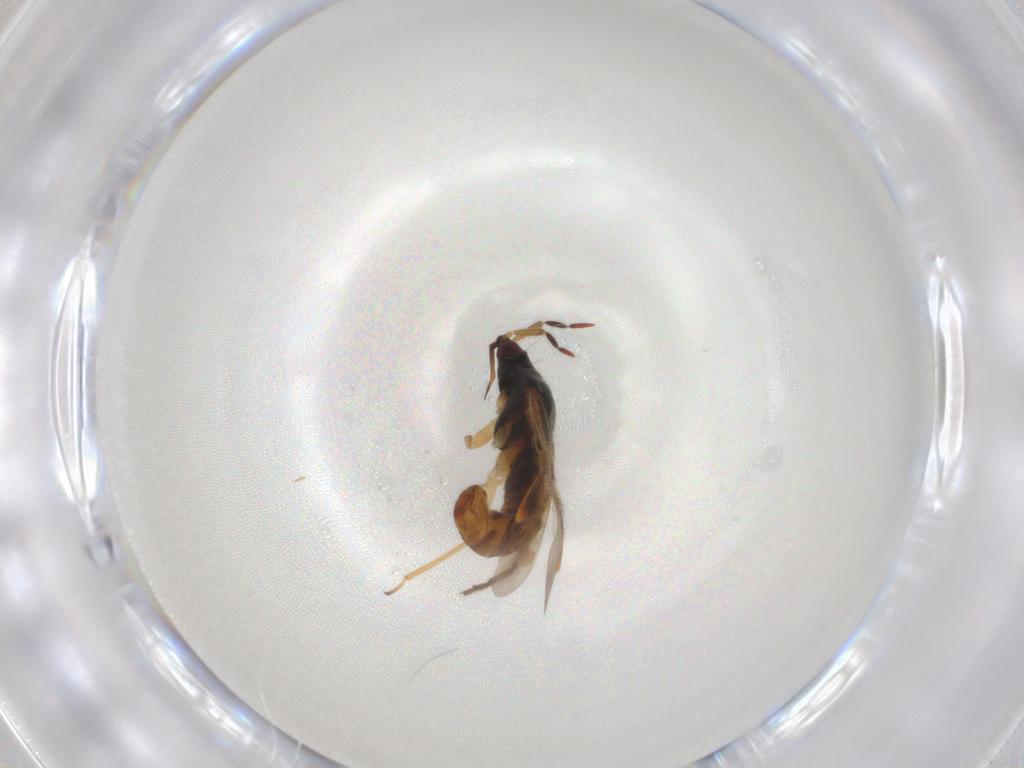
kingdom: Animalia
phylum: Arthropoda
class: Insecta
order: Hemiptera
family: Anthocoridae
